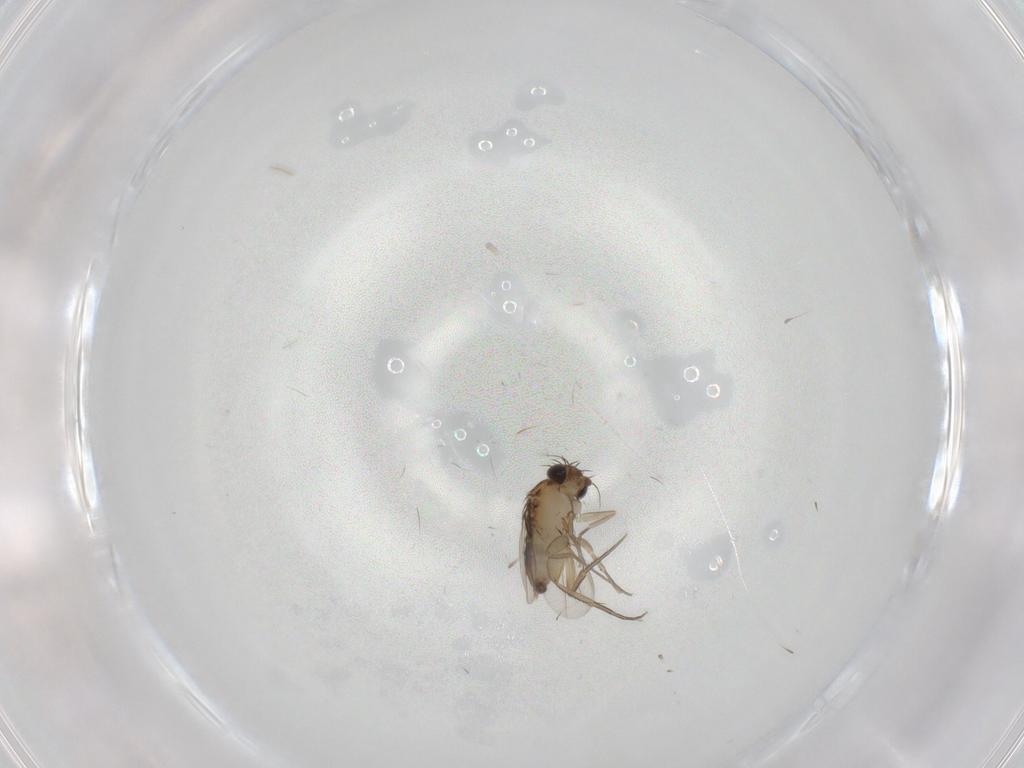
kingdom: Animalia
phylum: Arthropoda
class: Insecta
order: Diptera
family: Phoridae
